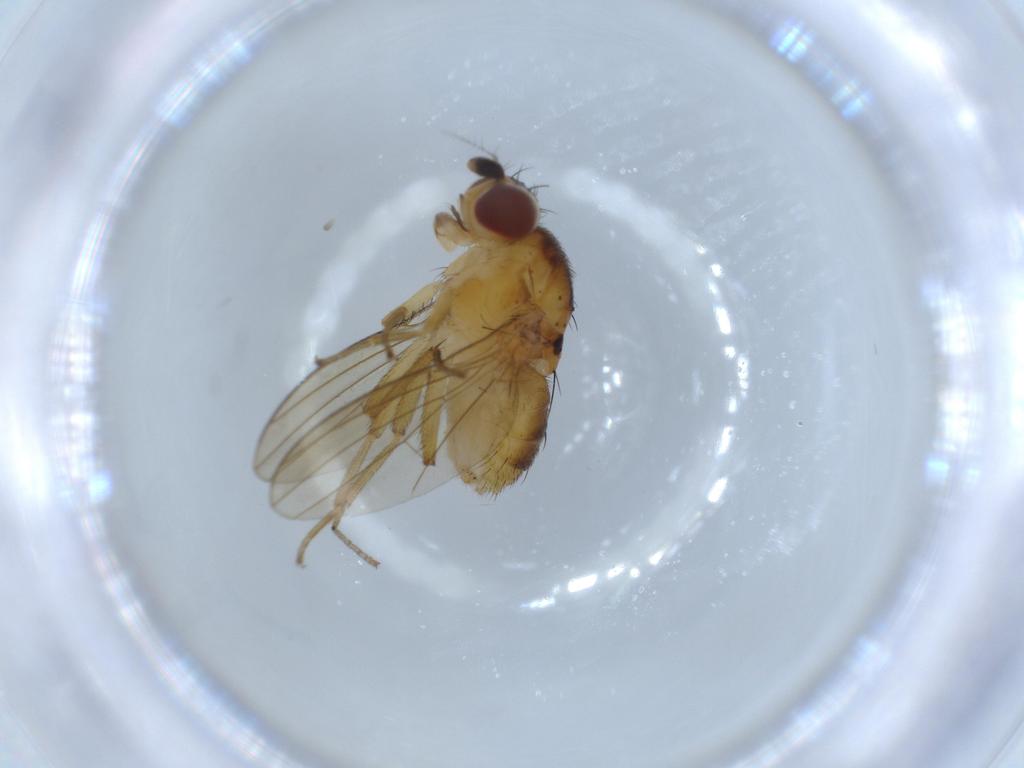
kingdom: Animalia
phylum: Arthropoda
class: Insecta
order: Diptera
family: Lauxaniidae
